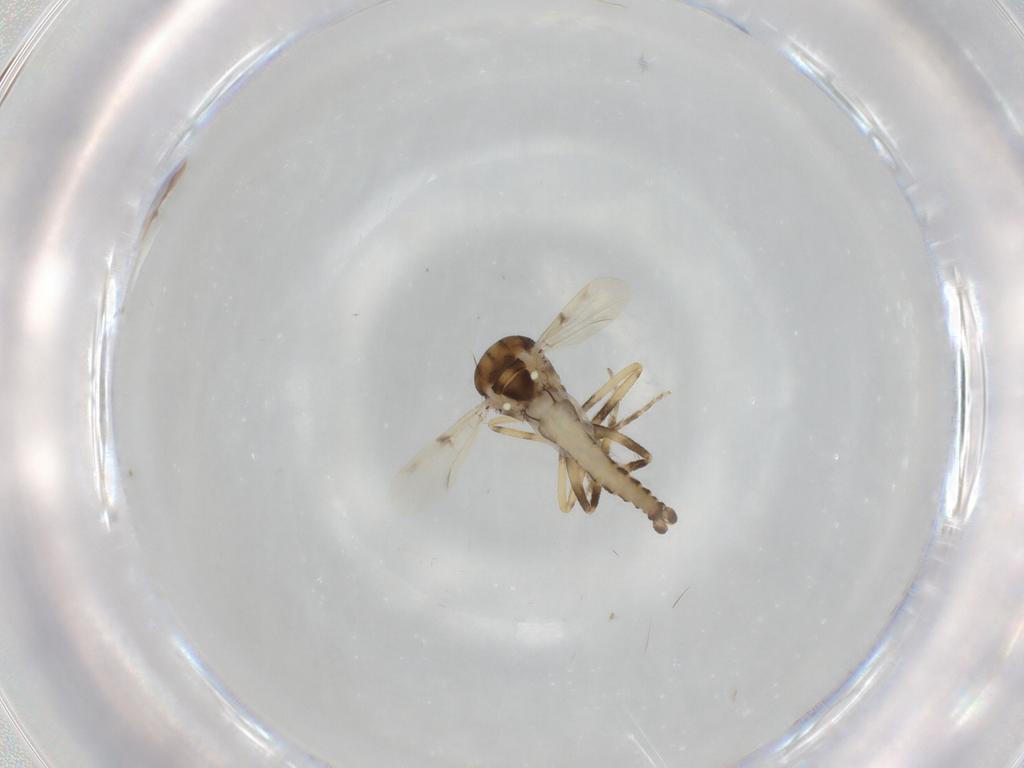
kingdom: Animalia
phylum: Arthropoda
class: Insecta
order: Diptera
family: Ceratopogonidae
